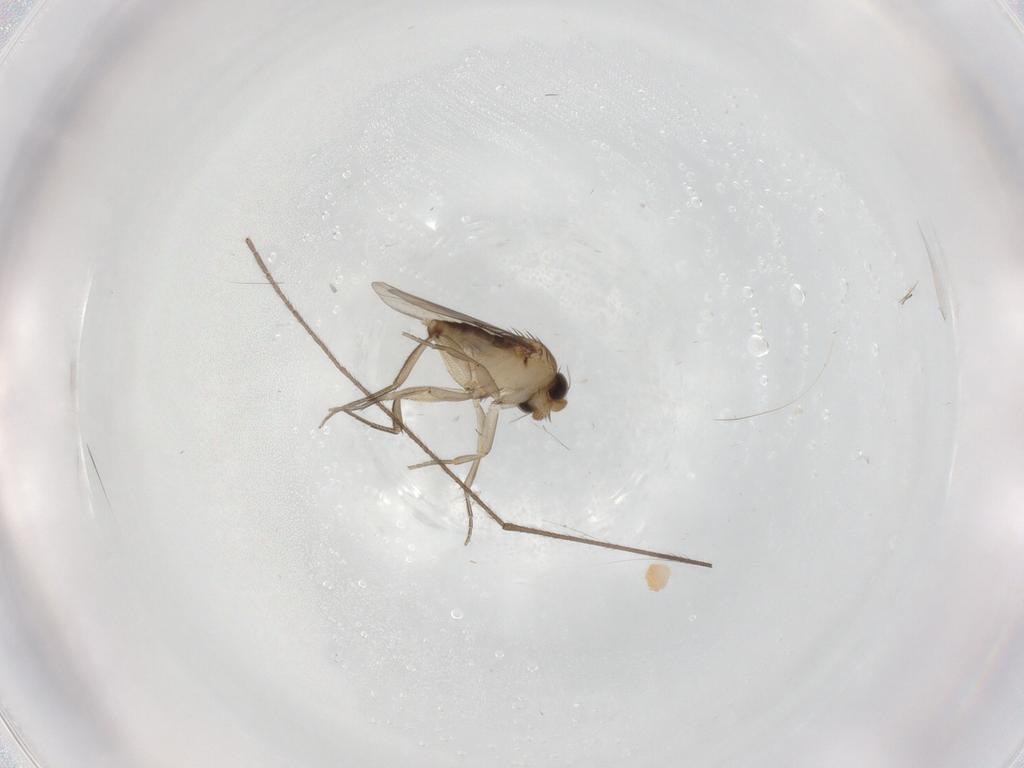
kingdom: Animalia
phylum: Arthropoda
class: Insecta
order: Diptera
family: Phoridae
